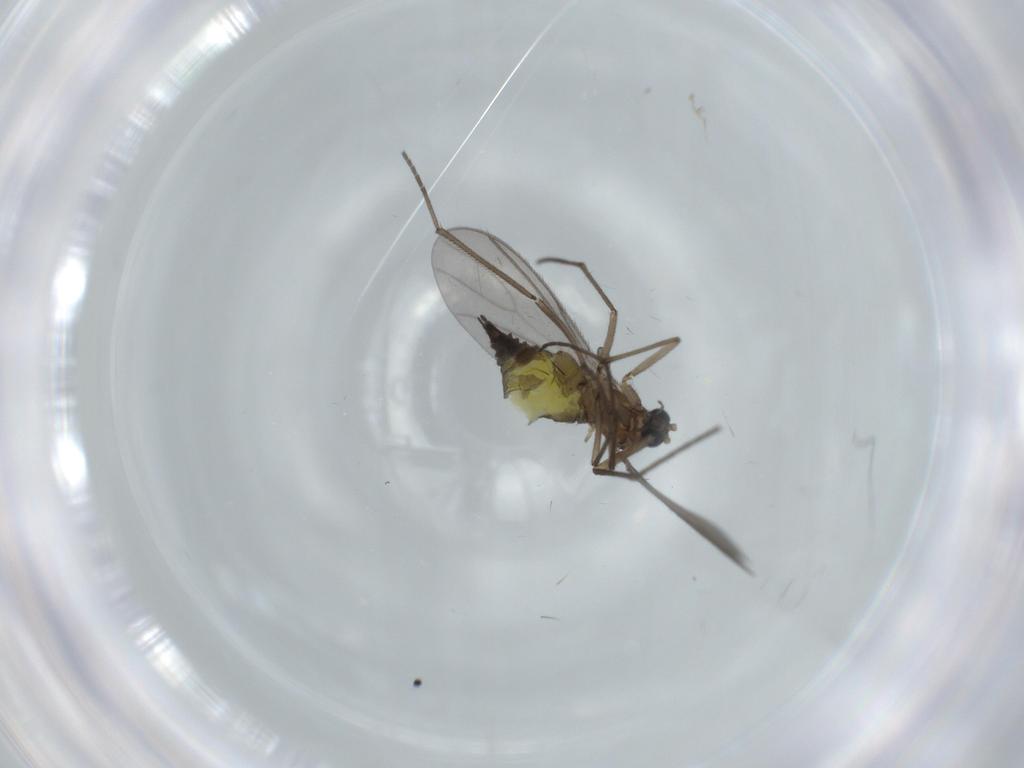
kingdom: Animalia
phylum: Arthropoda
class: Insecta
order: Diptera
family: Sciaridae
